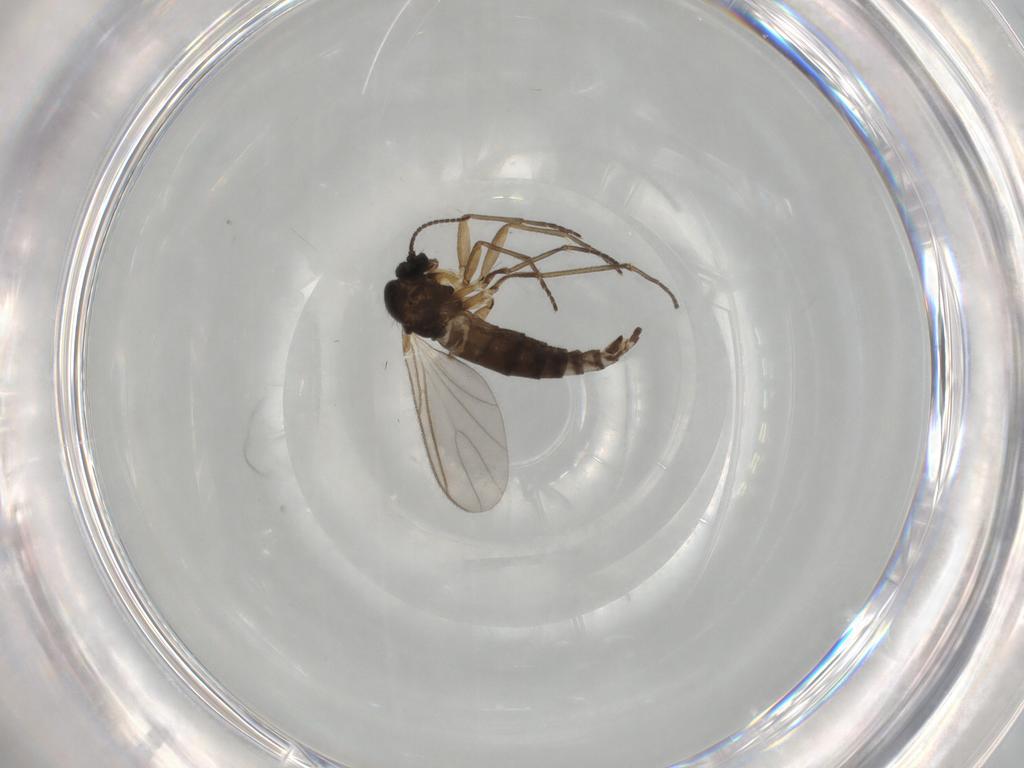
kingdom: Animalia
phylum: Arthropoda
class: Insecta
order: Diptera
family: Sciaridae
